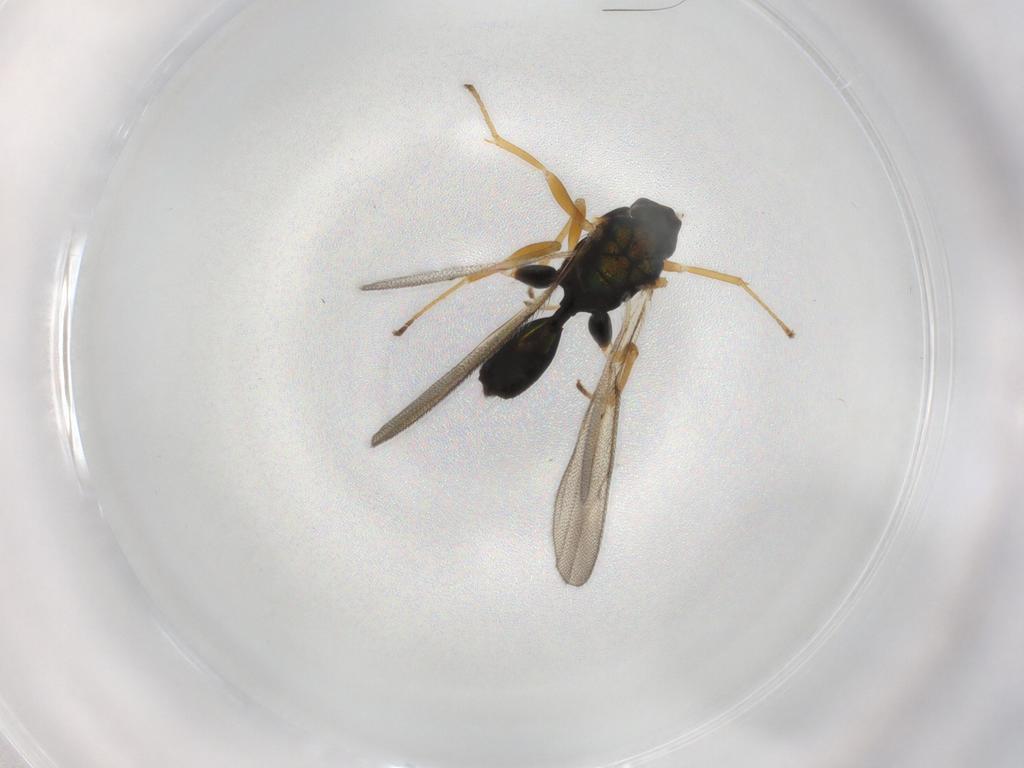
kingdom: Animalia
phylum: Arthropoda
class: Insecta
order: Hymenoptera
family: Diparidae
